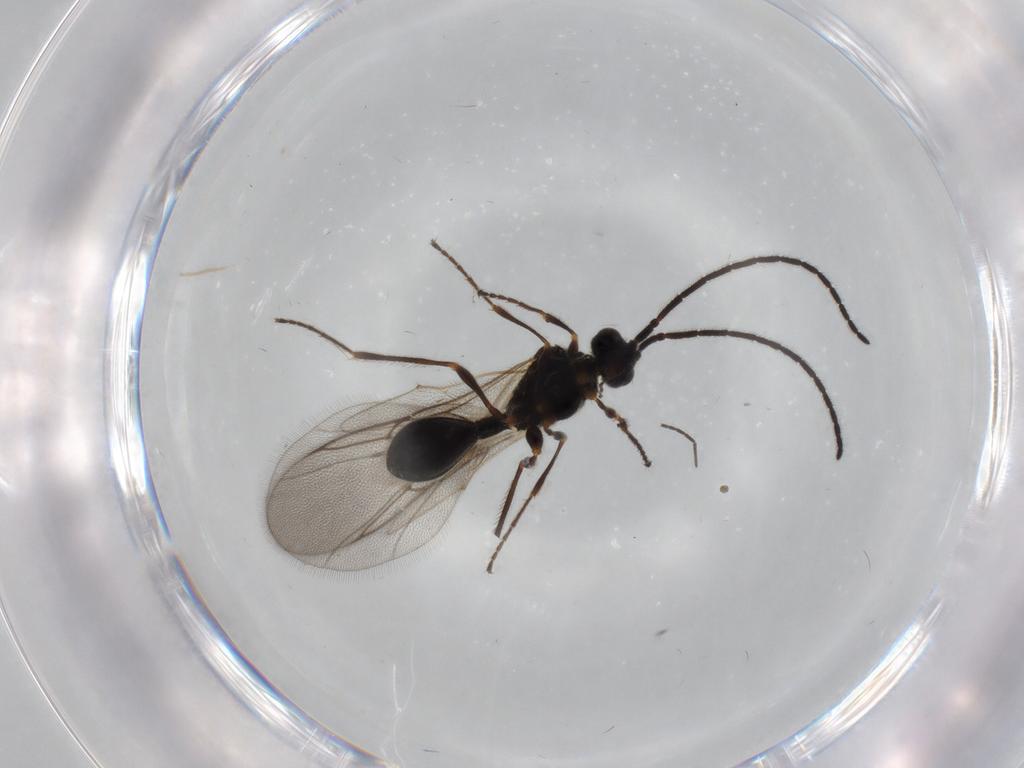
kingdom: Animalia
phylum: Arthropoda
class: Insecta
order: Hymenoptera
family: Diapriidae
